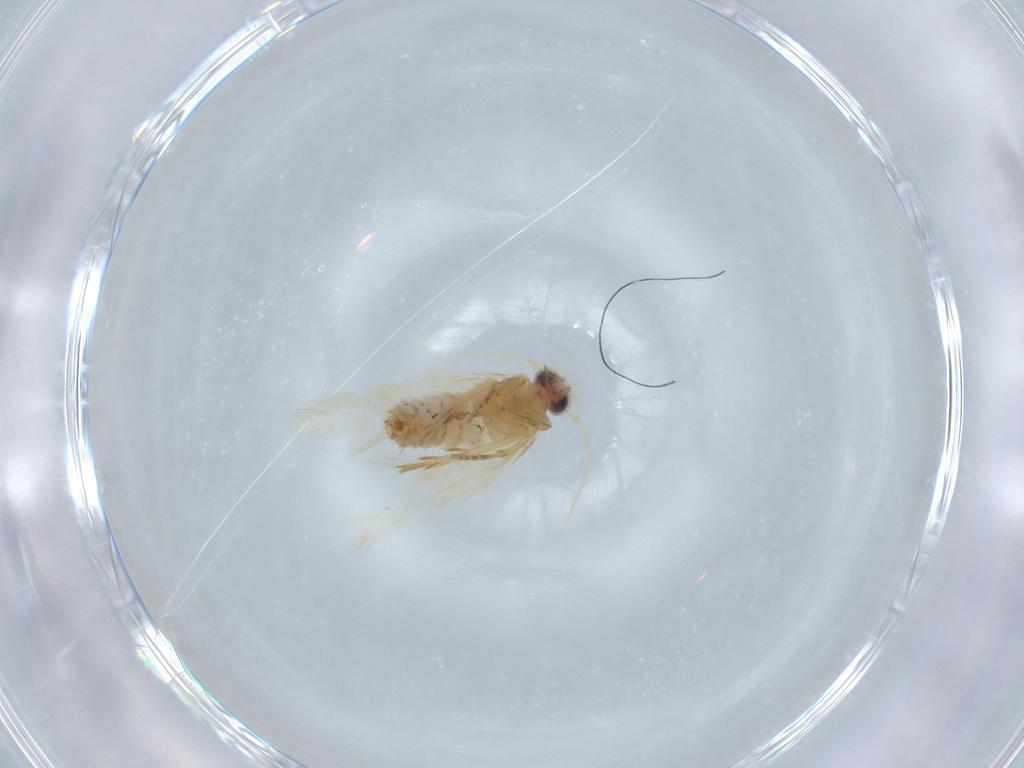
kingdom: Animalia
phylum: Arthropoda
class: Insecta
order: Lepidoptera
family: Nepticulidae
